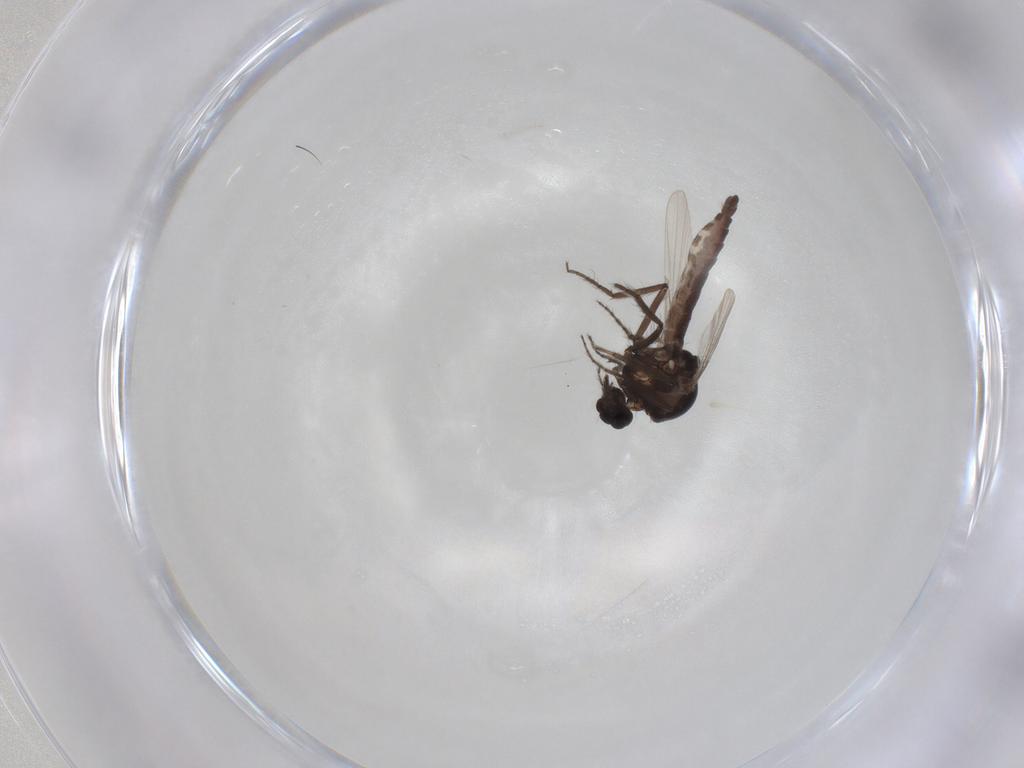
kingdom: Animalia
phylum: Arthropoda
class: Insecta
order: Diptera
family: Ceratopogonidae
